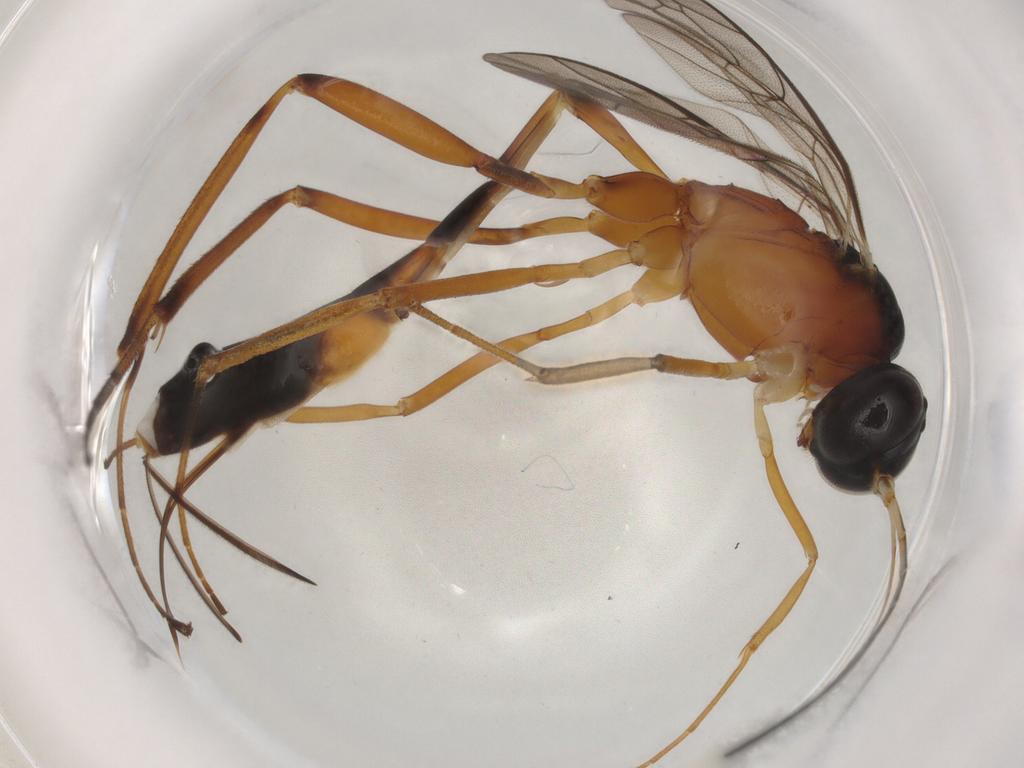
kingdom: Animalia
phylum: Arthropoda
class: Insecta
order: Hymenoptera
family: Ichneumonidae
